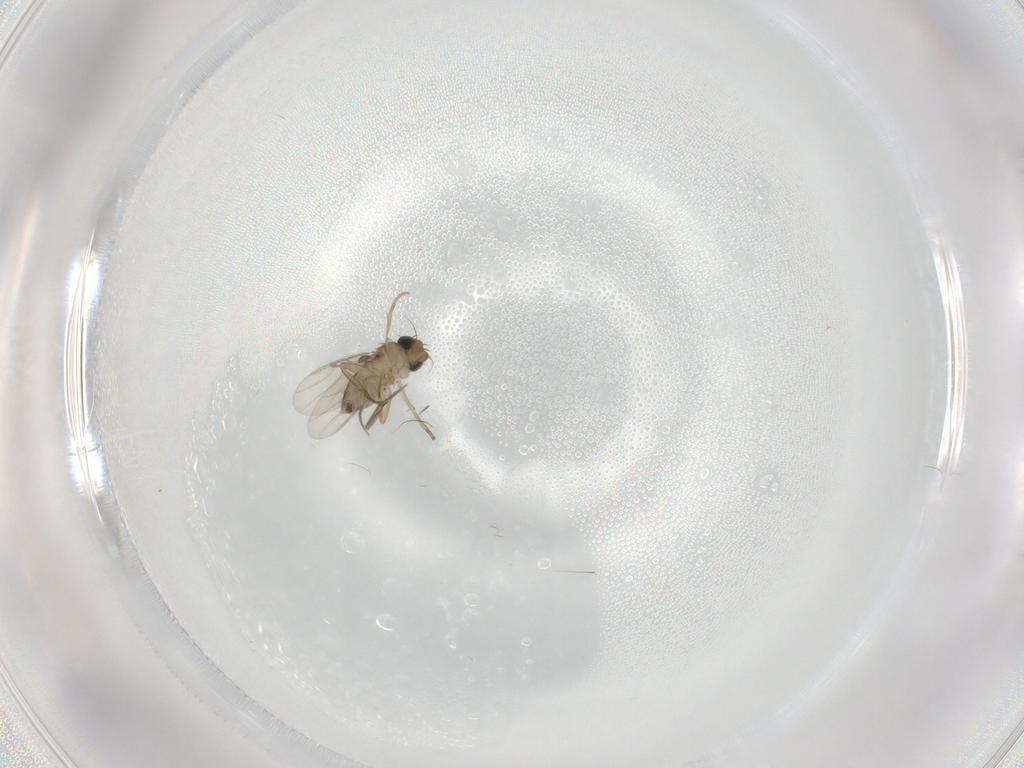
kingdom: Animalia
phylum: Arthropoda
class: Insecta
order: Diptera
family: Phoridae
